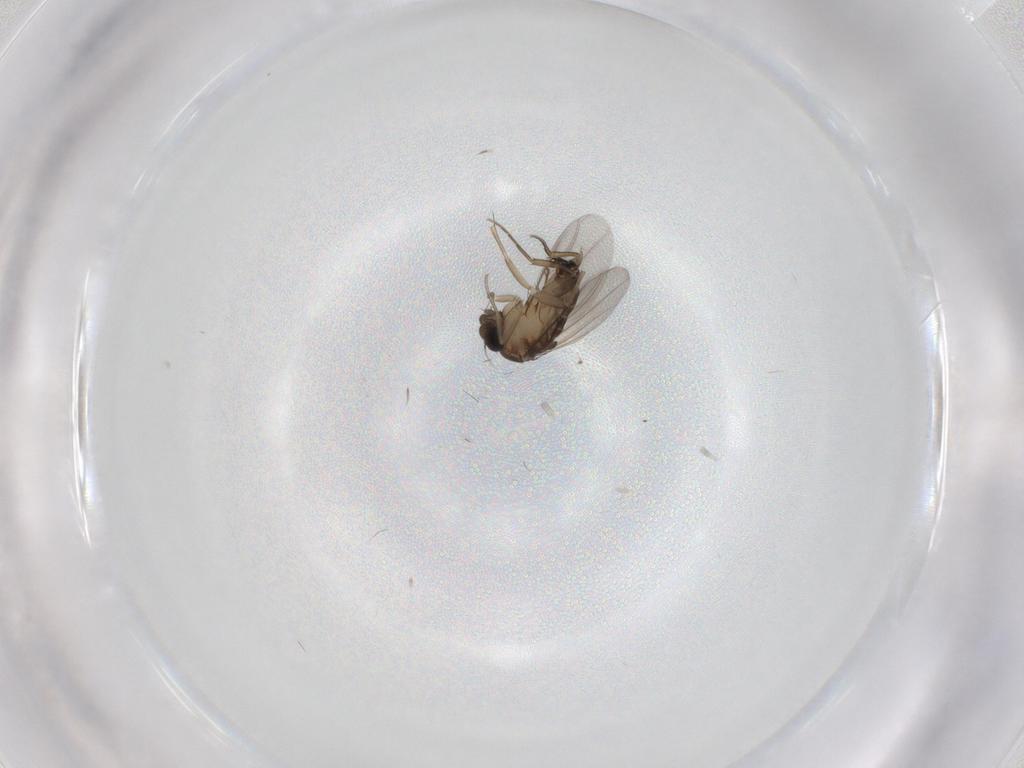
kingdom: Animalia
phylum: Arthropoda
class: Insecta
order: Diptera
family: Phoridae
